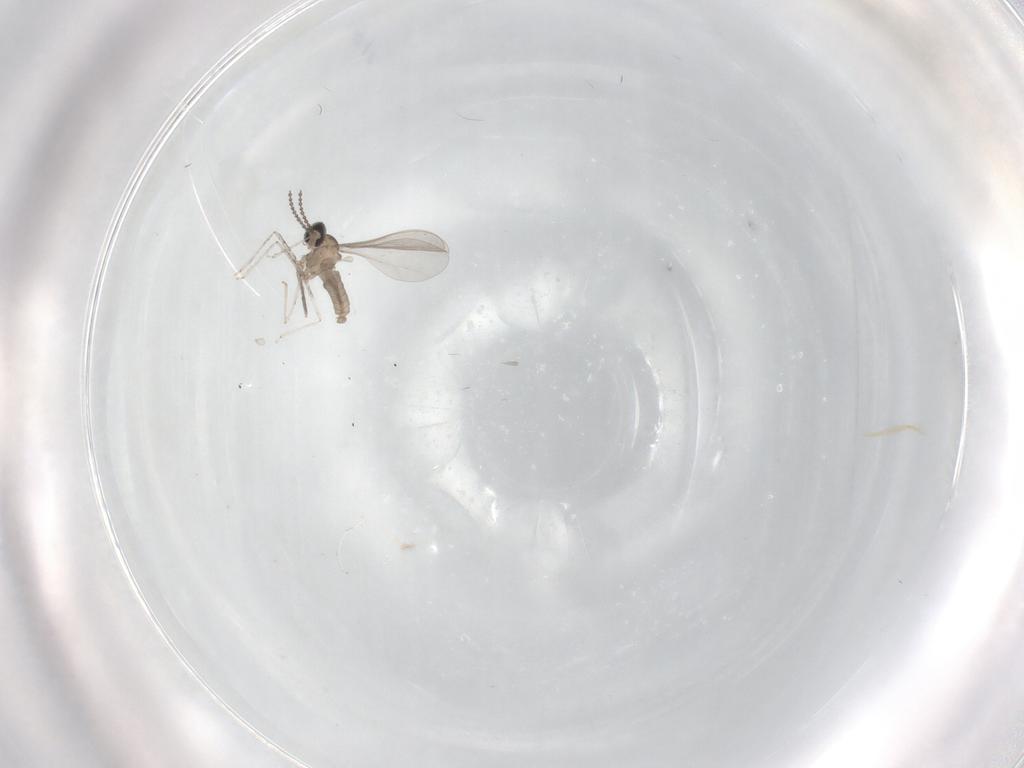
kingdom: Animalia
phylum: Arthropoda
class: Insecta
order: Diptera
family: Cecidomyiidae
